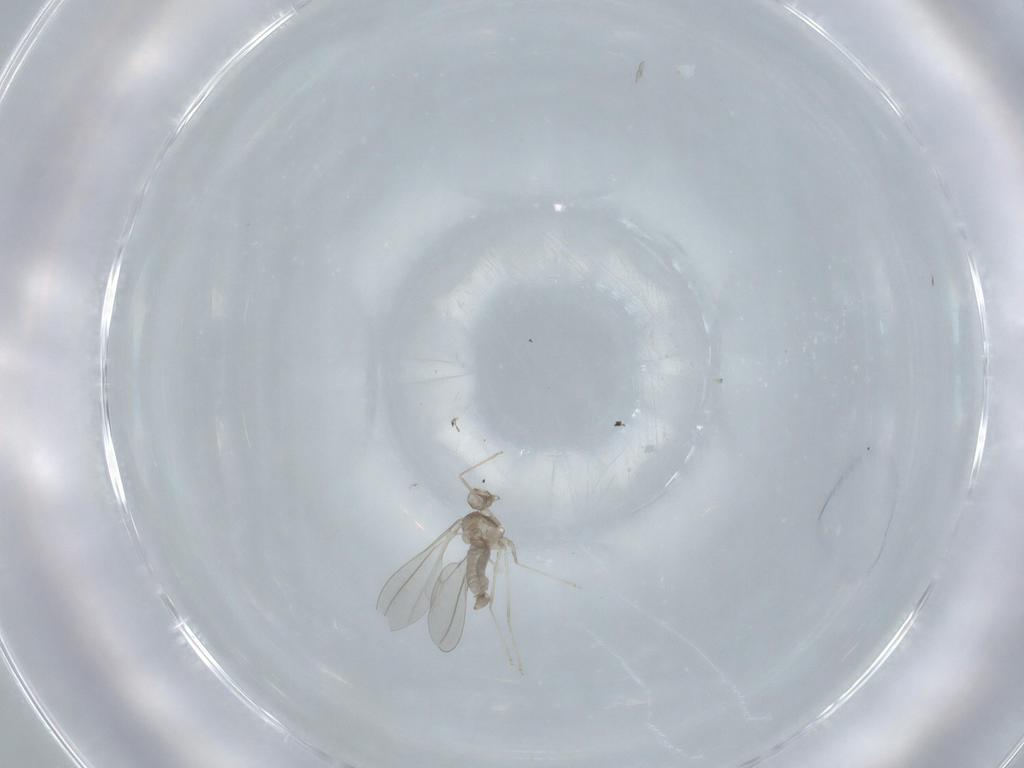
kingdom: Animalia
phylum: Arthropoda
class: Insecta
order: Diptera
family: Cecidomyiidae
